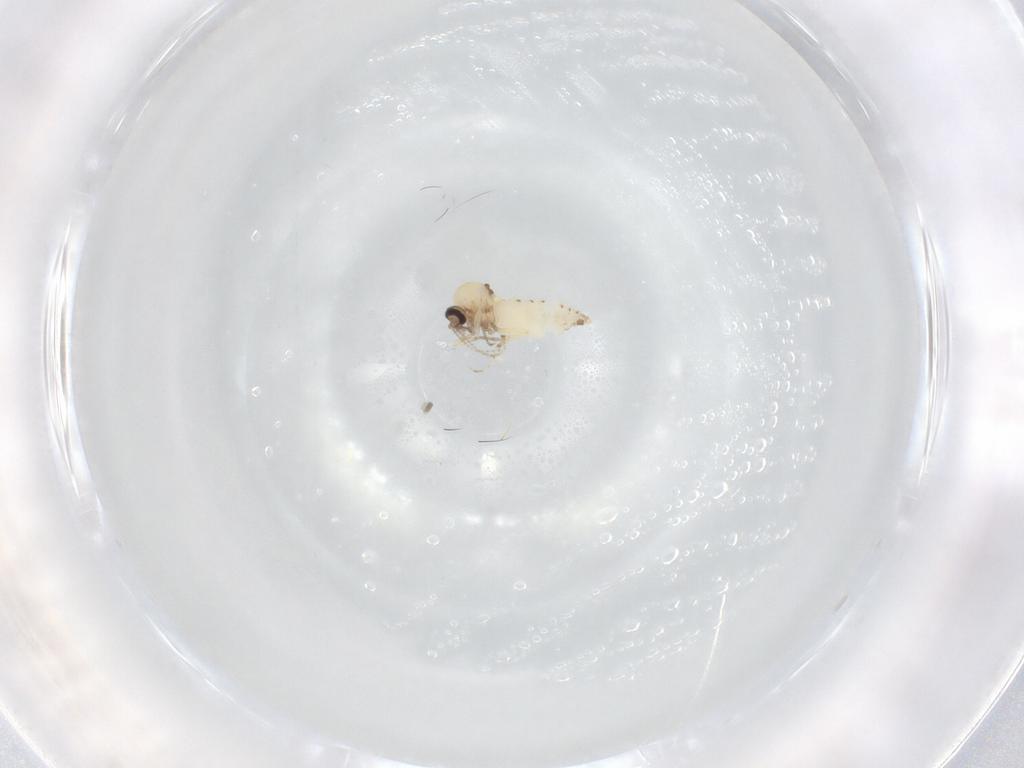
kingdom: Animalia
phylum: Arthropoda
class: Insecta
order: Diptera
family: Ceratopogonidae
